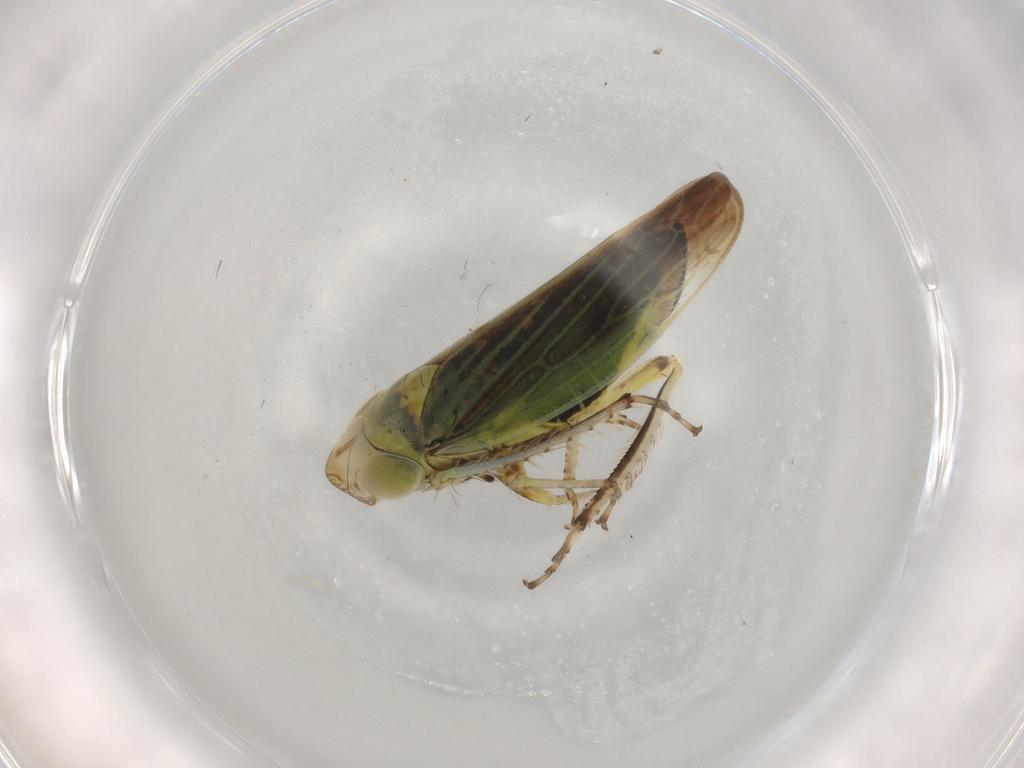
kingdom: Animalia
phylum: Arthropoda
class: Insecta
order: Hemiptera
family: Cicadellidae
